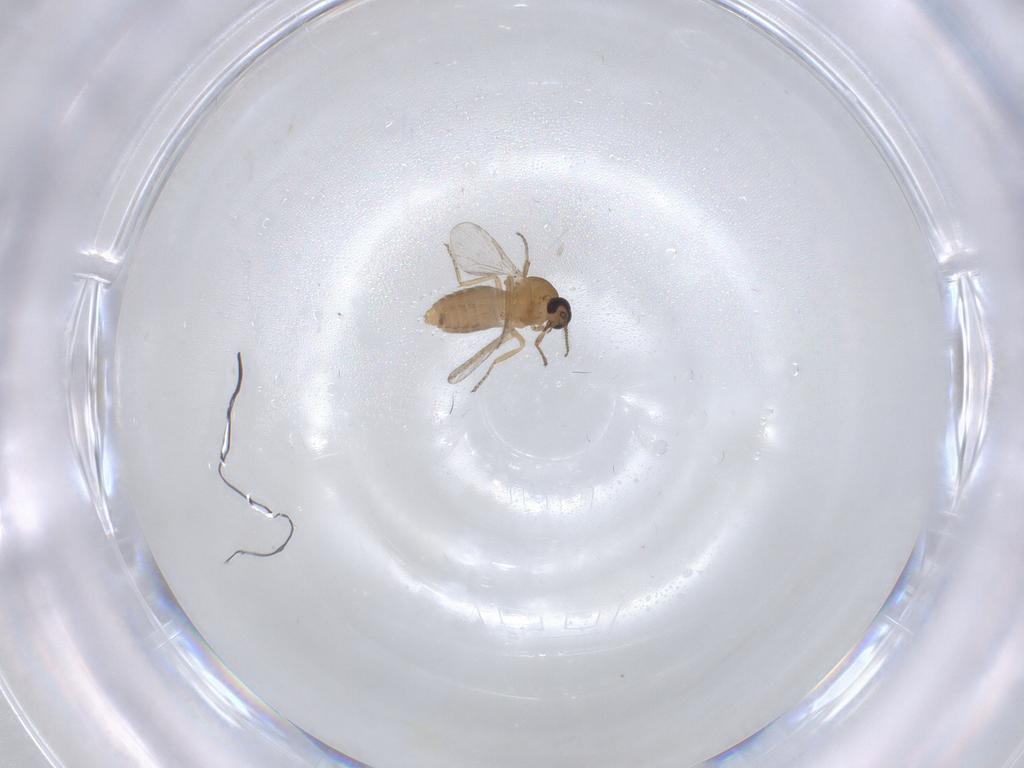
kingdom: Animalia
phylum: Arthropoda
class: Insecta
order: Diptera
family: Ceratopogonidae
